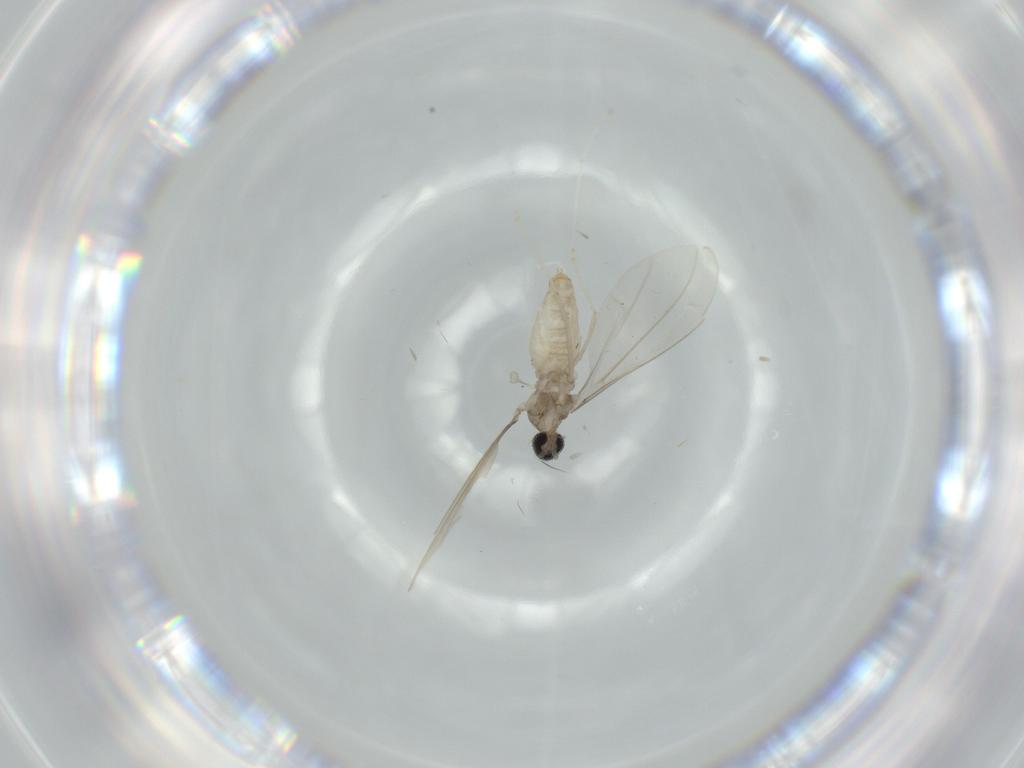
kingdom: Animalia
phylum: Arthropoda
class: Insecta
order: Diptera
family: Cecidomyiidae
